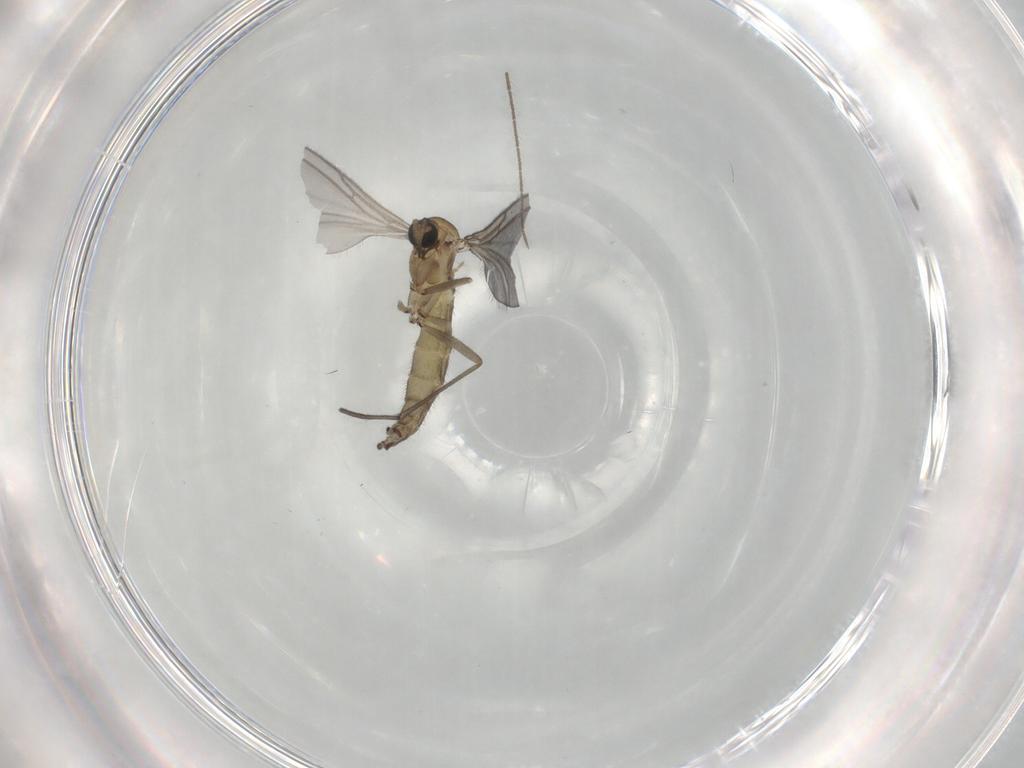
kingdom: Animalia
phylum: Arthropoda
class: Insecta
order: Diptera
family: Sciaridae
